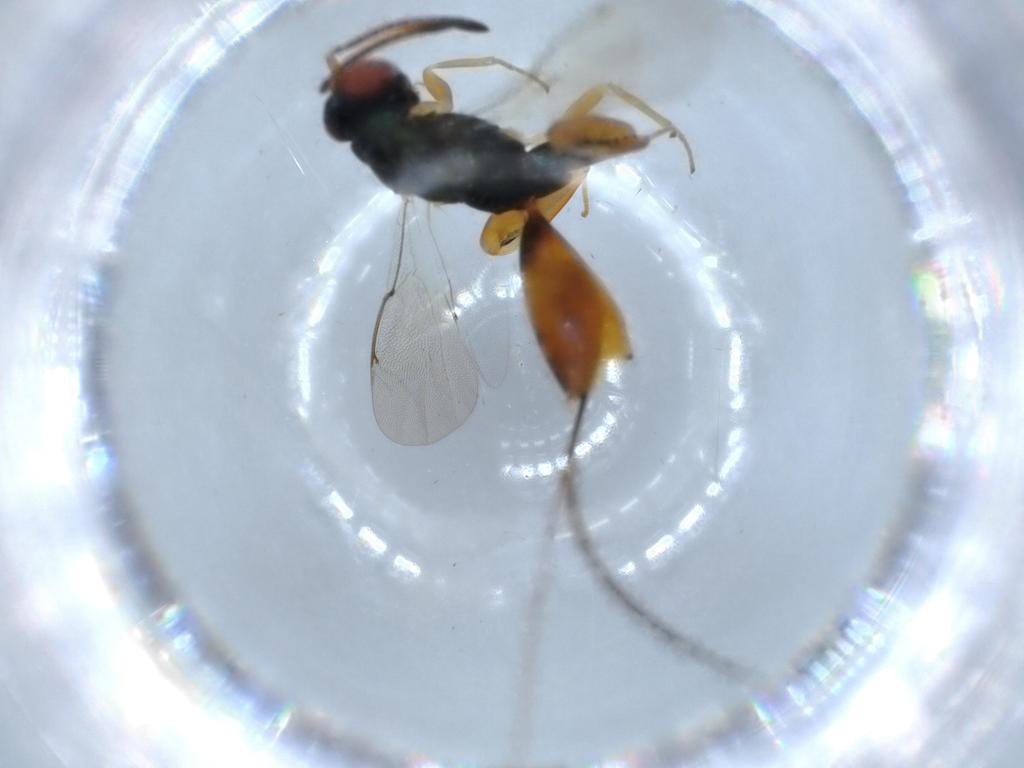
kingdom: Animalia
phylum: Arthropoda
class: Insecta
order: Hymenoptera
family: Torymidae
